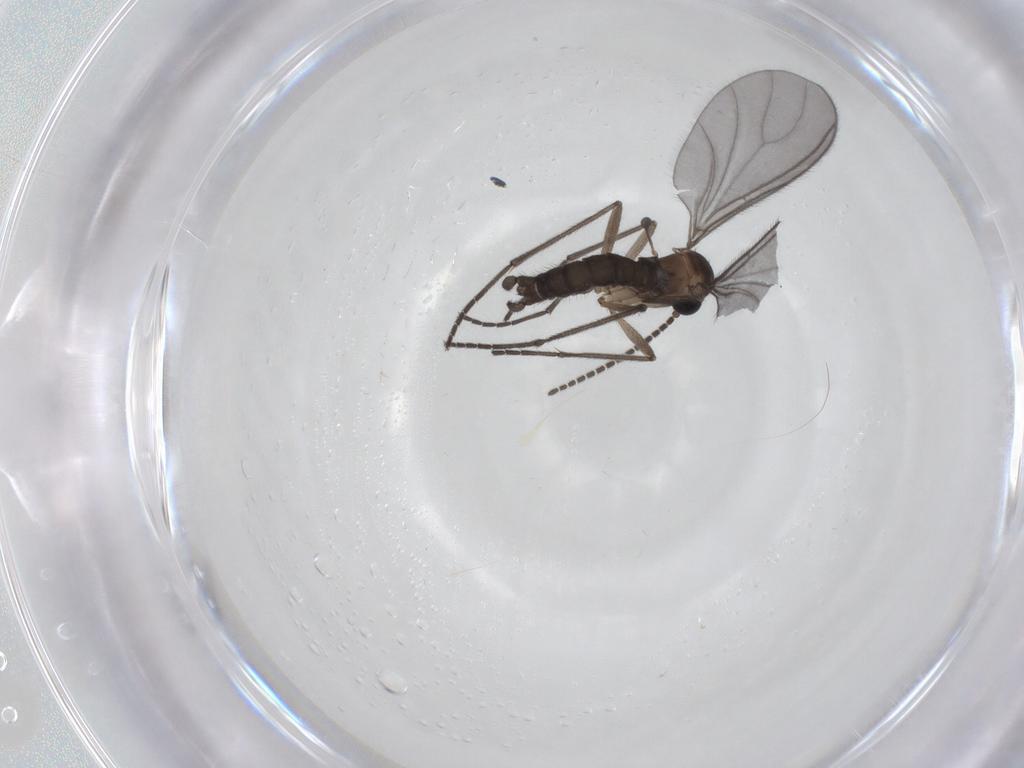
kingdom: Animalia
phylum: Arthropoda
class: Insecta
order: Diptera
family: Sciaridae
